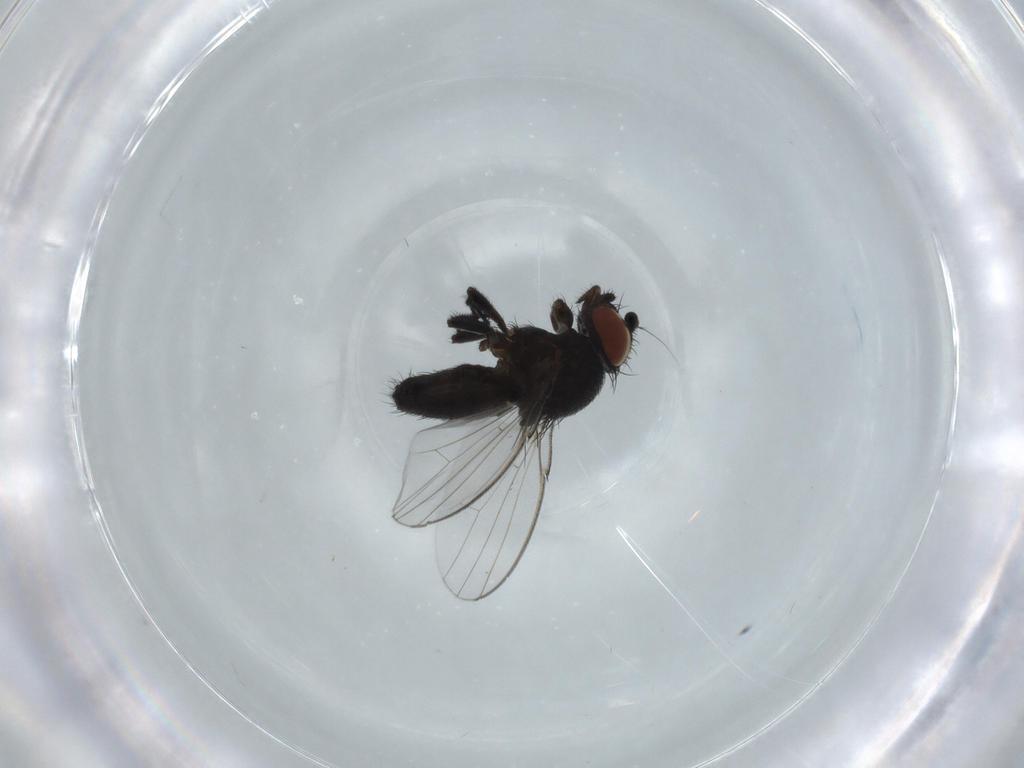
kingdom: Animalia
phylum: Arthropoda
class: Insecta
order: Diptera
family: Milichiidae
